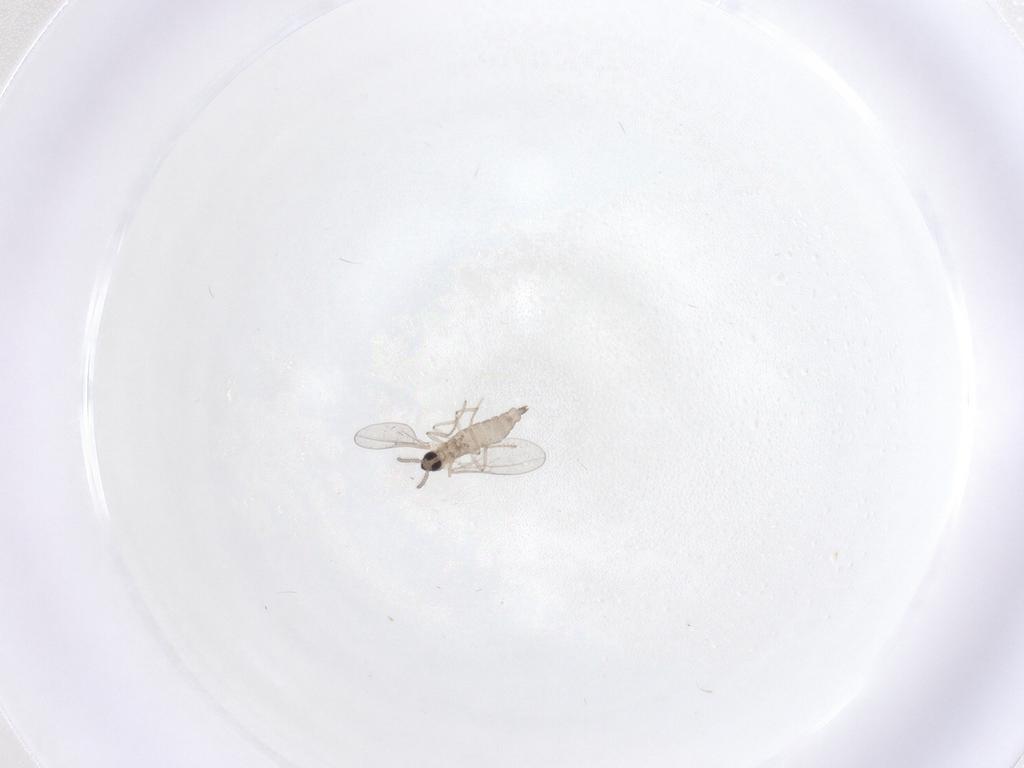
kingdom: Animalia
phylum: Arthropoda
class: Insecta
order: Diptera
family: Cecidomyiidae
